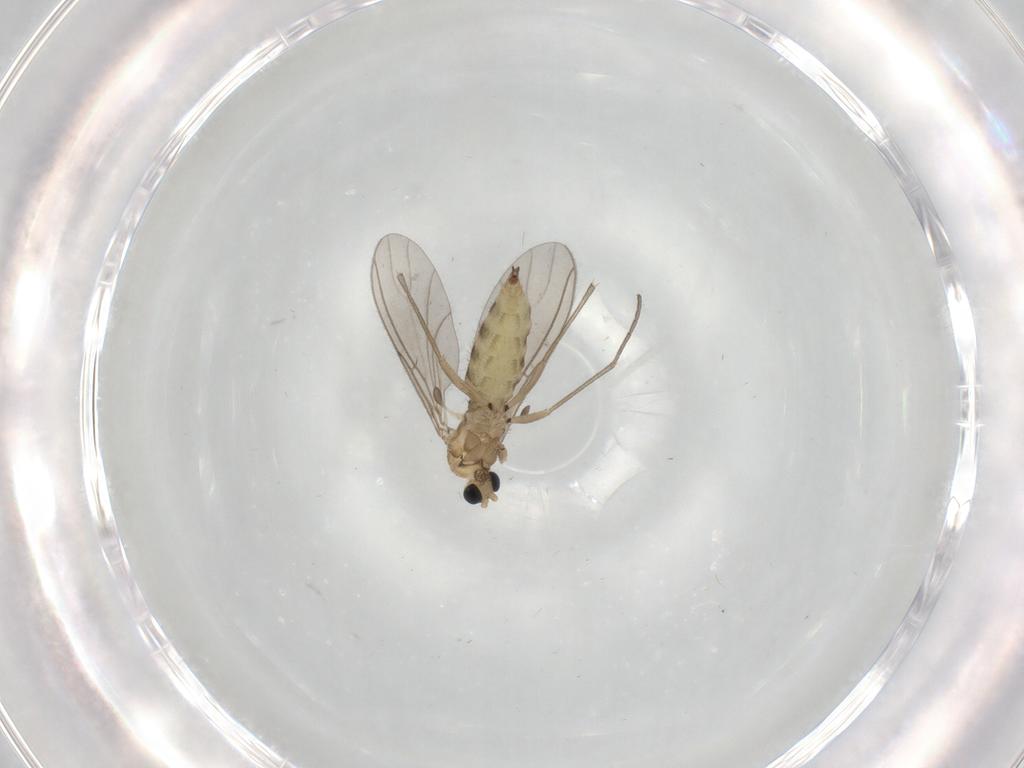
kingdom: Animalia
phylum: Arthropoda
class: Insecta
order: Diptera
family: Sciaridae
